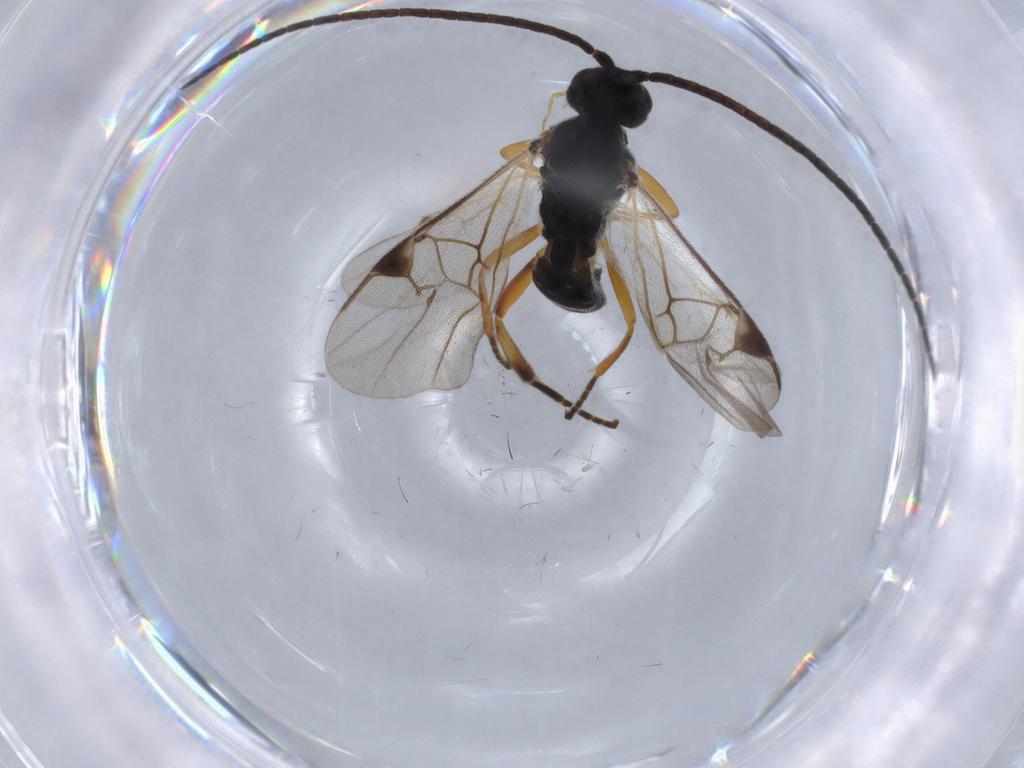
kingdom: Animalia
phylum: Arthropoda
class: Insecta
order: Hymenoptera
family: Braconidae
